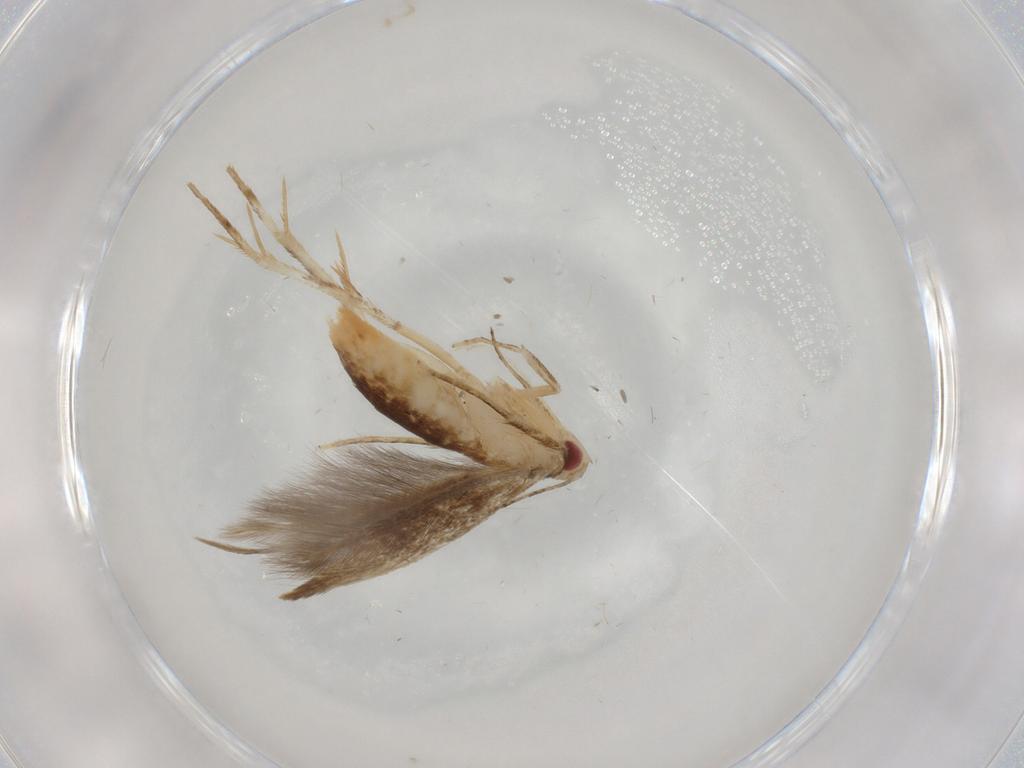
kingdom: Animalia
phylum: Arthropoda
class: Insecta
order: Lepidoptera
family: Gelechiidae
